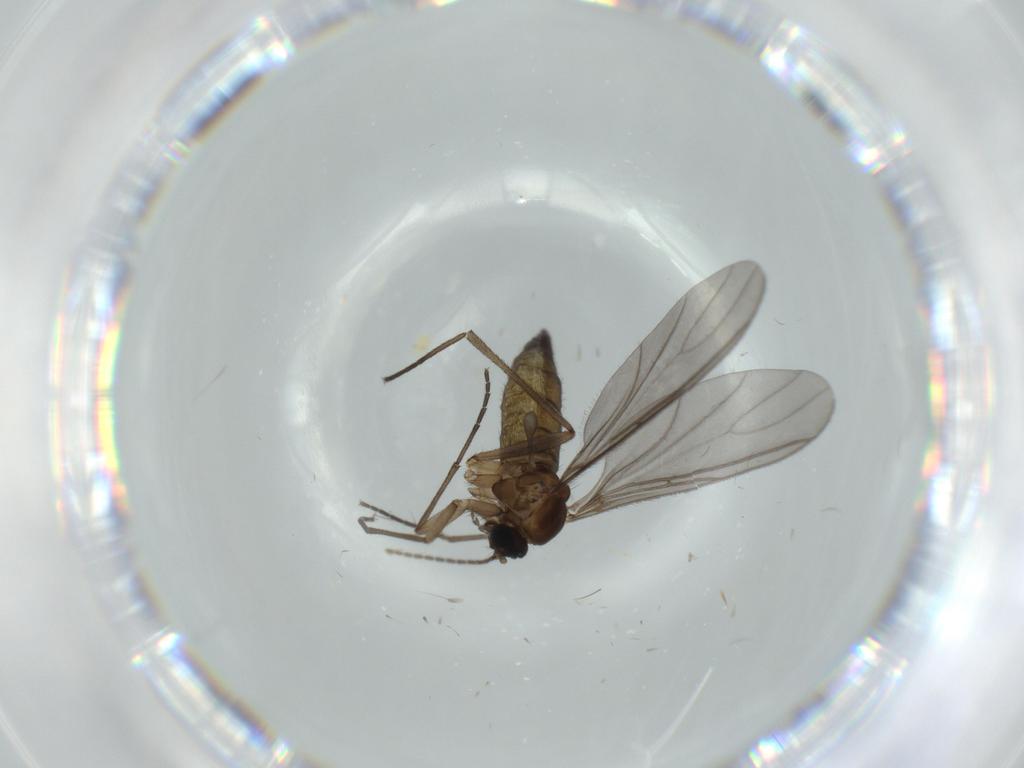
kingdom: Animalia
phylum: Arthropoda
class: Insecta
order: Diptera
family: Sciaridae
